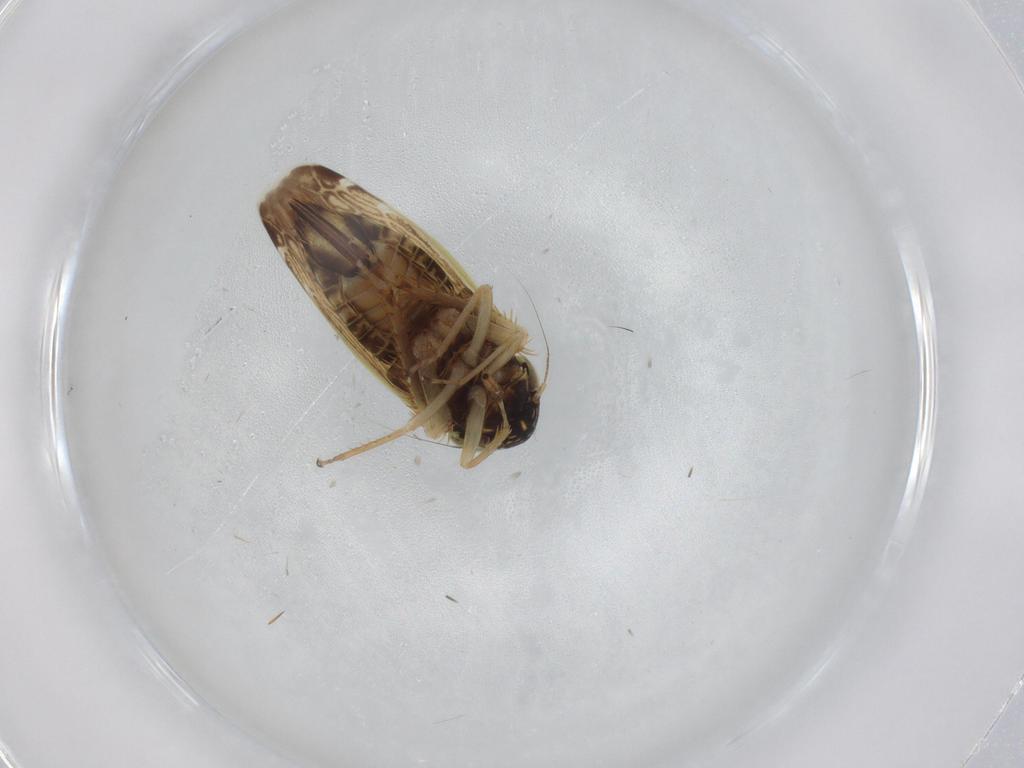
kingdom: Animalia
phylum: Arthropoda
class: Insecta
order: Hemiptera
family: Cicadellidae
